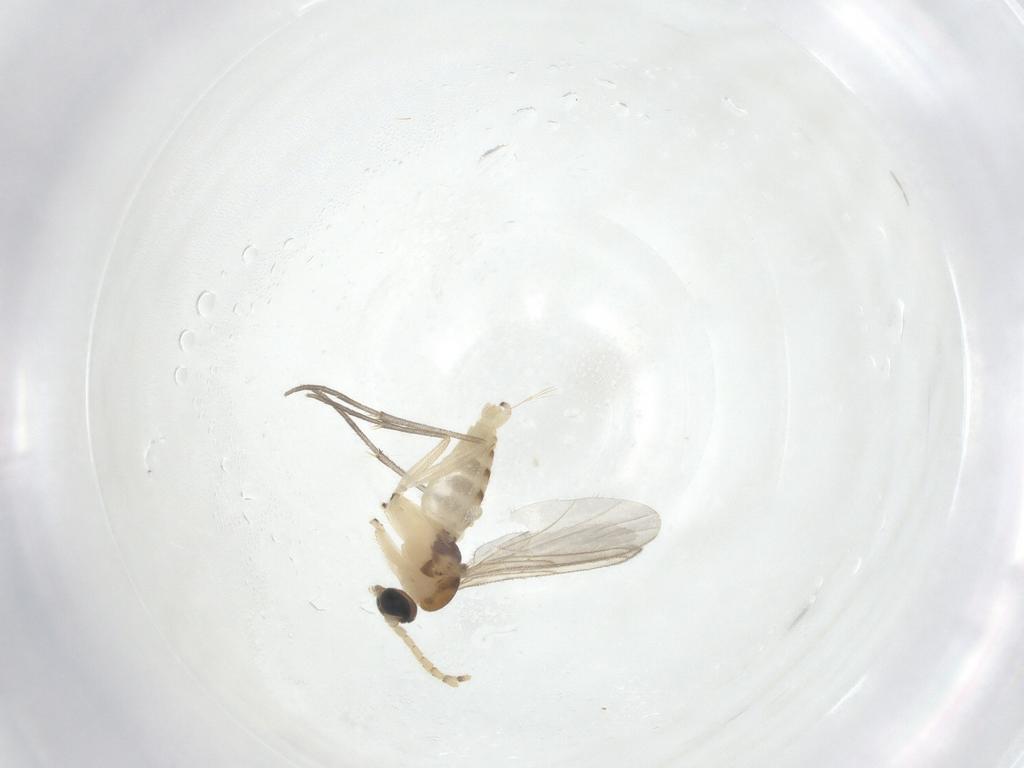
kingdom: Animalia
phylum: Arthropoda
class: Insecta
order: Diptera
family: Sciaridae
